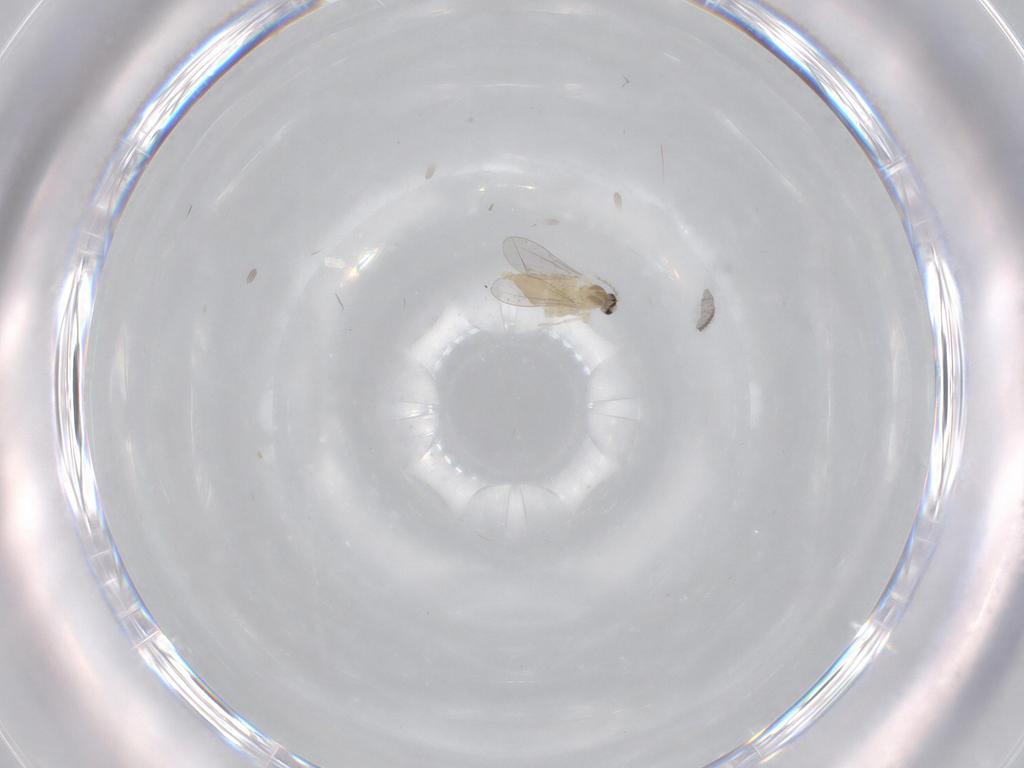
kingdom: Animalia
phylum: Arthropoda
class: Insecta
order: Diptera
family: Cecidomyiidae
